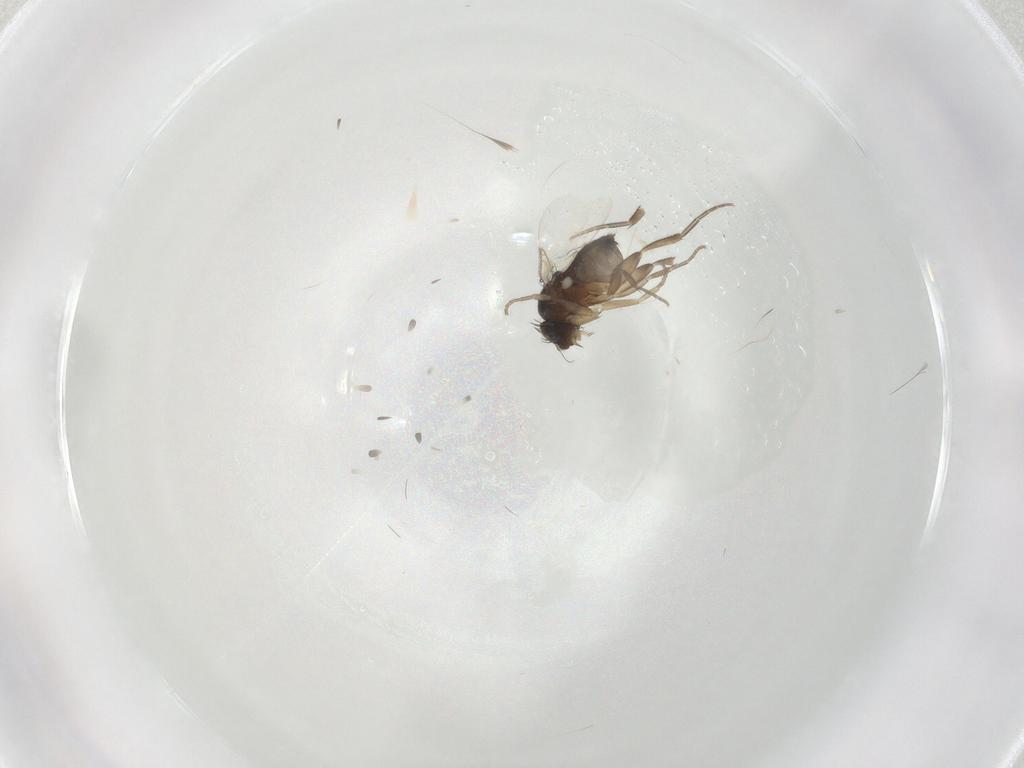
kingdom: Animalia
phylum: Arthropoda
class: Insecta
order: Diptera
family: Phoridae
